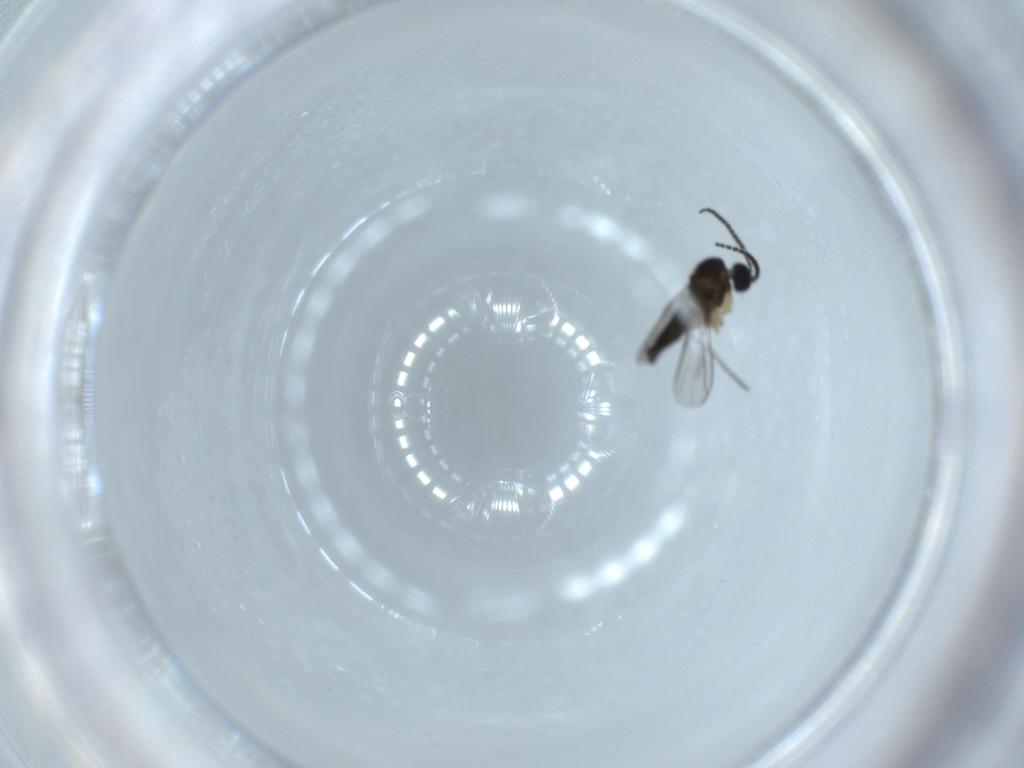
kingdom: Animalia
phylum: Arthropoda
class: Insecta
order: Diptera
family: Sciaridae
